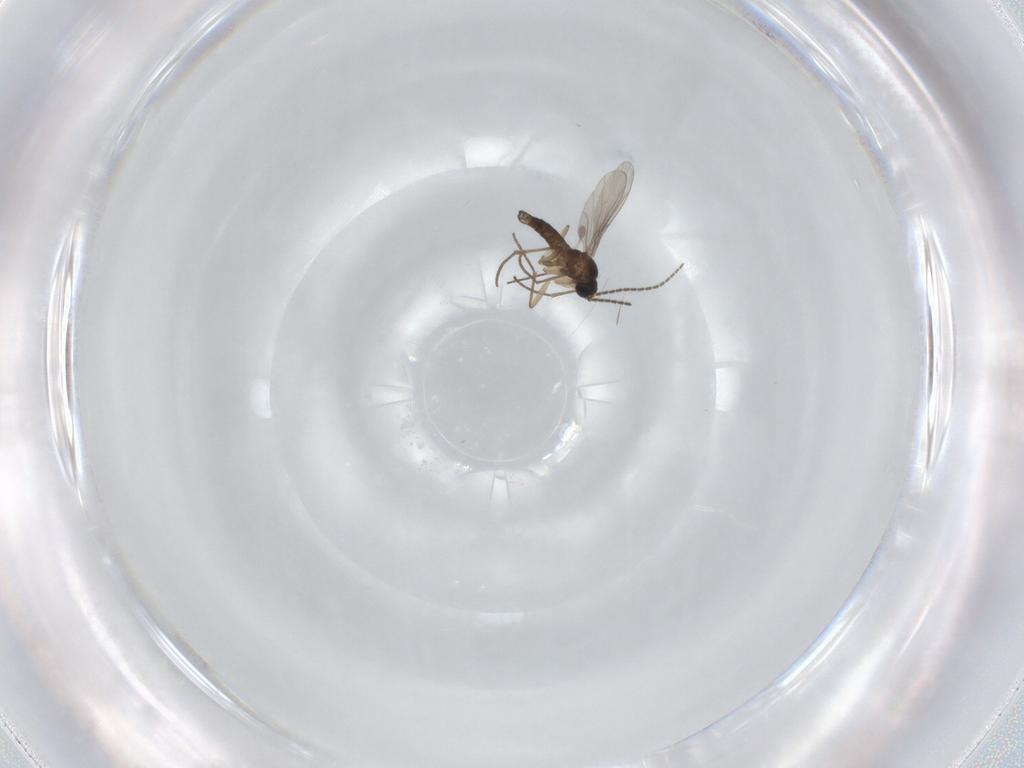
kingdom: Animalia
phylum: Arthropoda
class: Insecta
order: Diptera
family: Sciaridae
